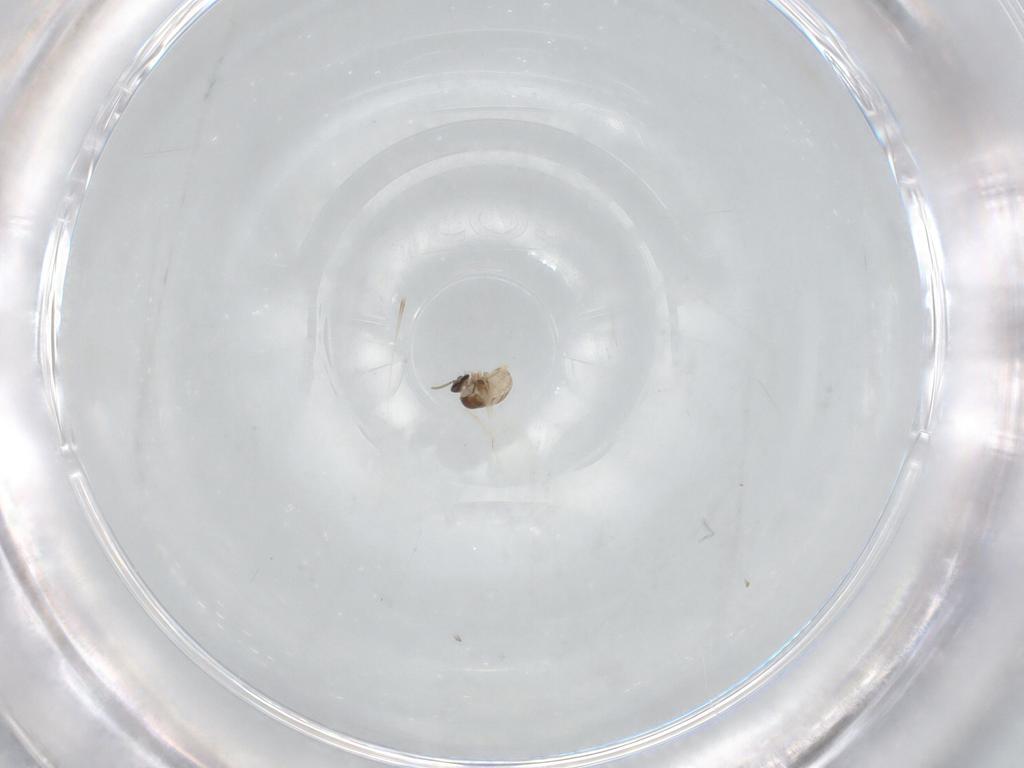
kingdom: Animalia
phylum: Arthropoda
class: Insecta
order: Diptera
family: Cecidomyiidae
